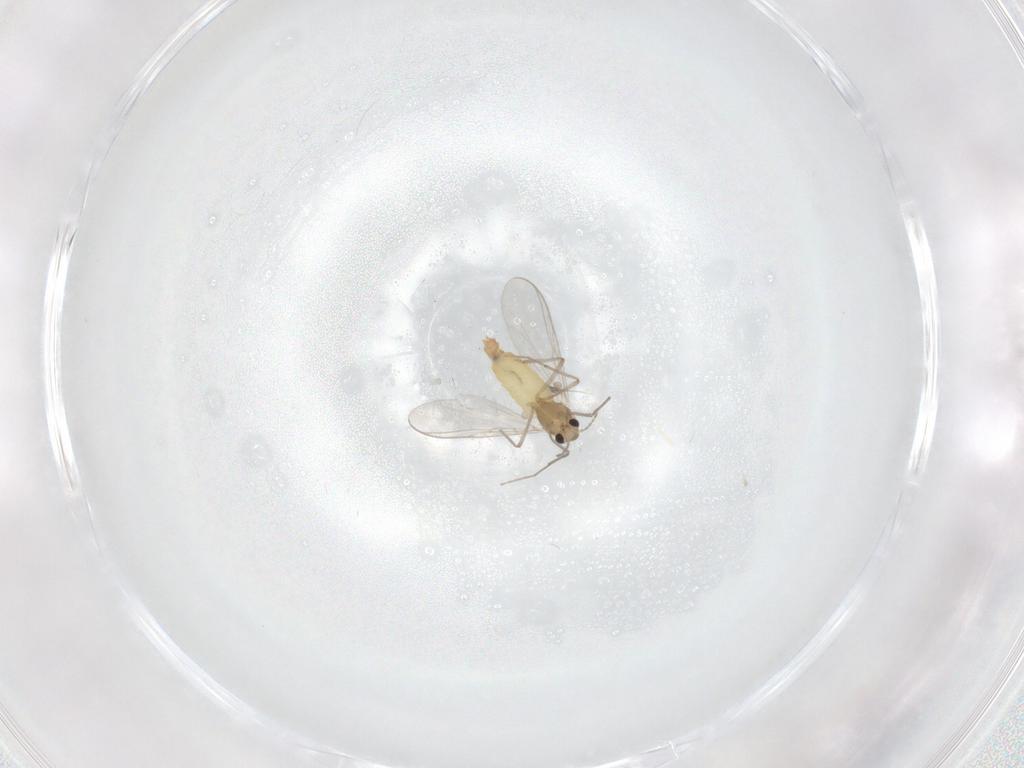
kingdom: Animalia
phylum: Arthropoda
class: Insecta
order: Diptera
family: Chironomidae
